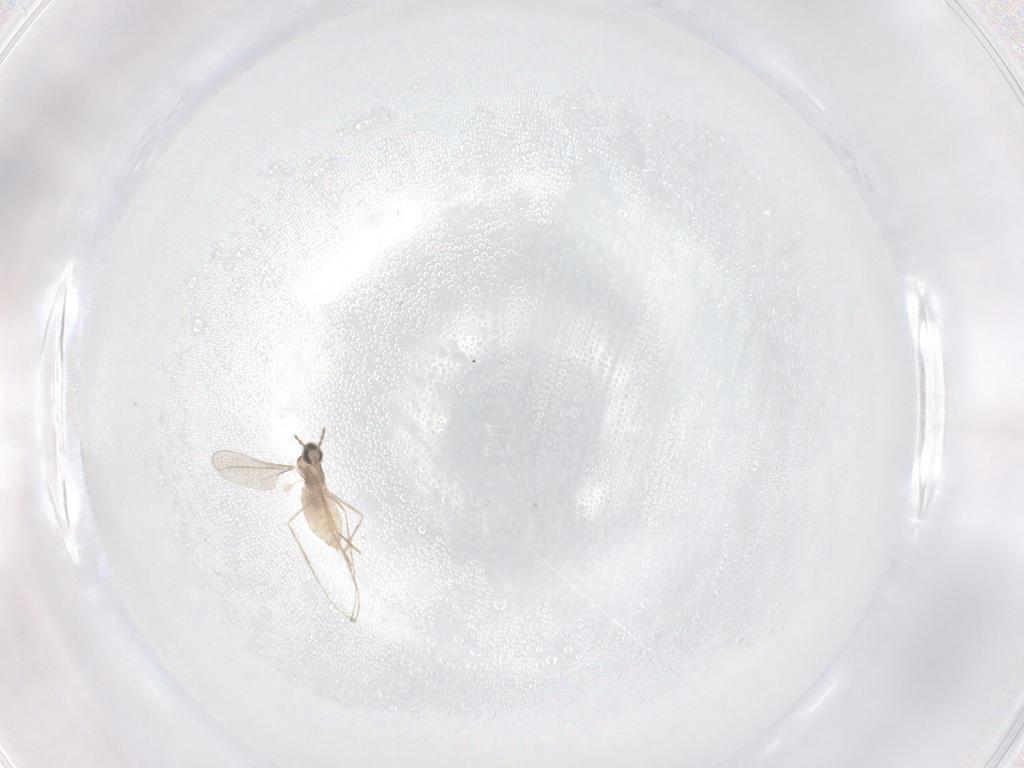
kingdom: Animalia
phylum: Arthropoda
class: Insecta
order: Diptera
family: Cecidomyiidae
